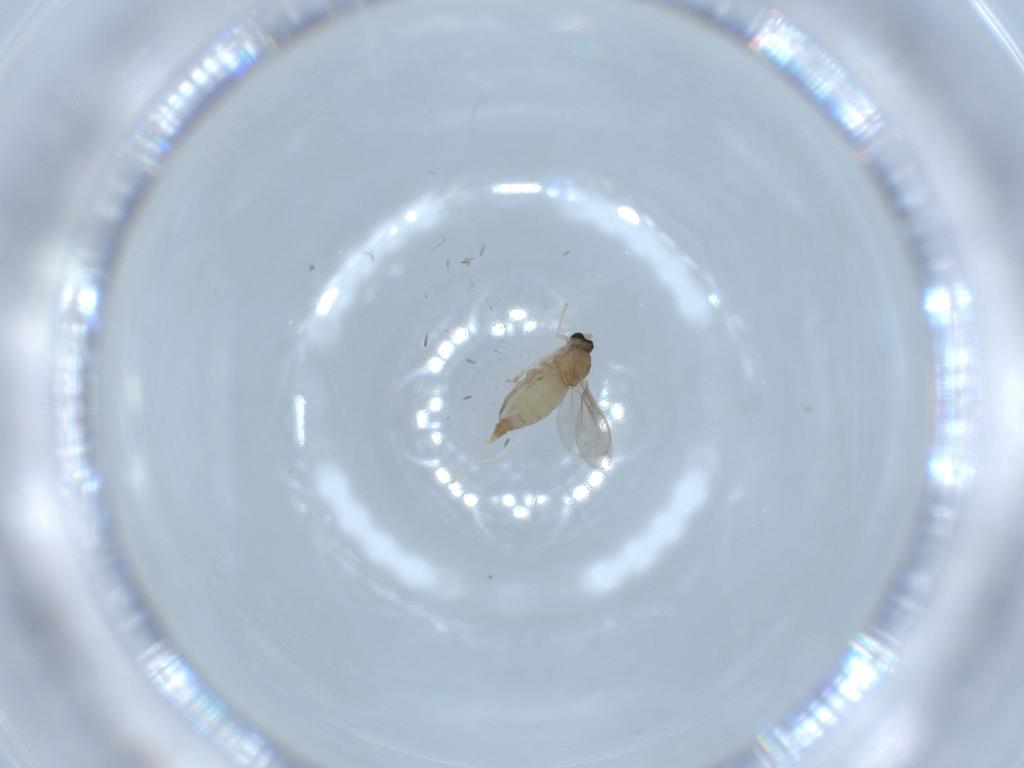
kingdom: Animalia
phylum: Arthropoda
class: Insecta
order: Diptera
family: Cecidomyiidae
